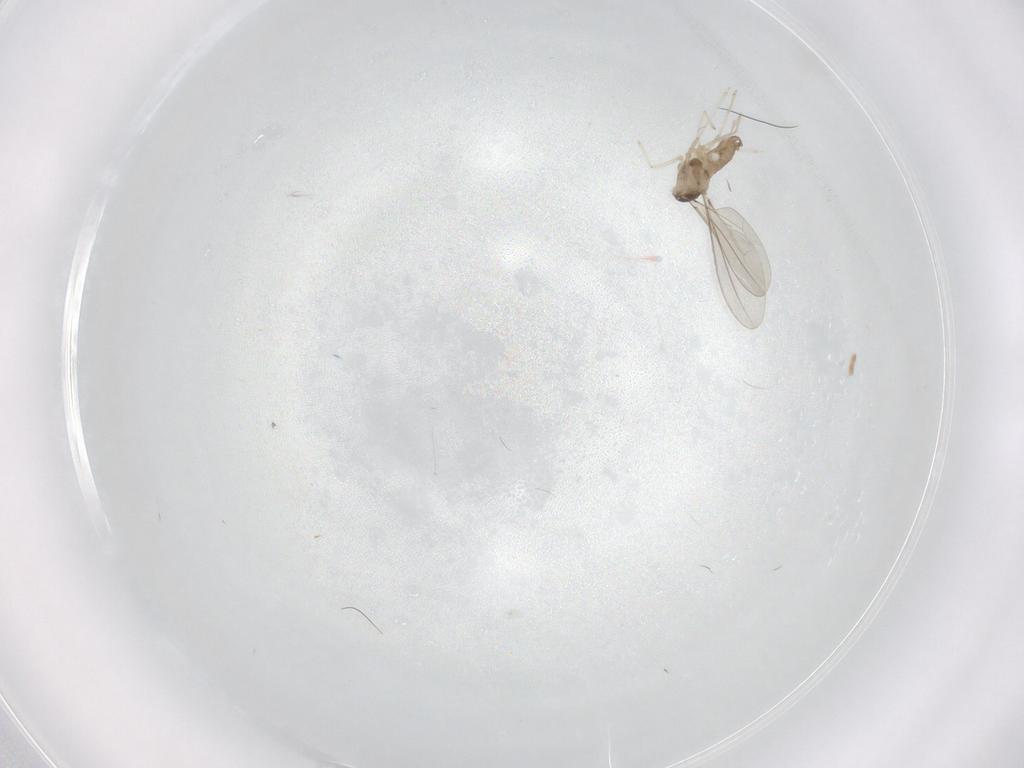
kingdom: Animalia
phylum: Arthropoda
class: Insecta
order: Diptera
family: Cecidomyiidae
